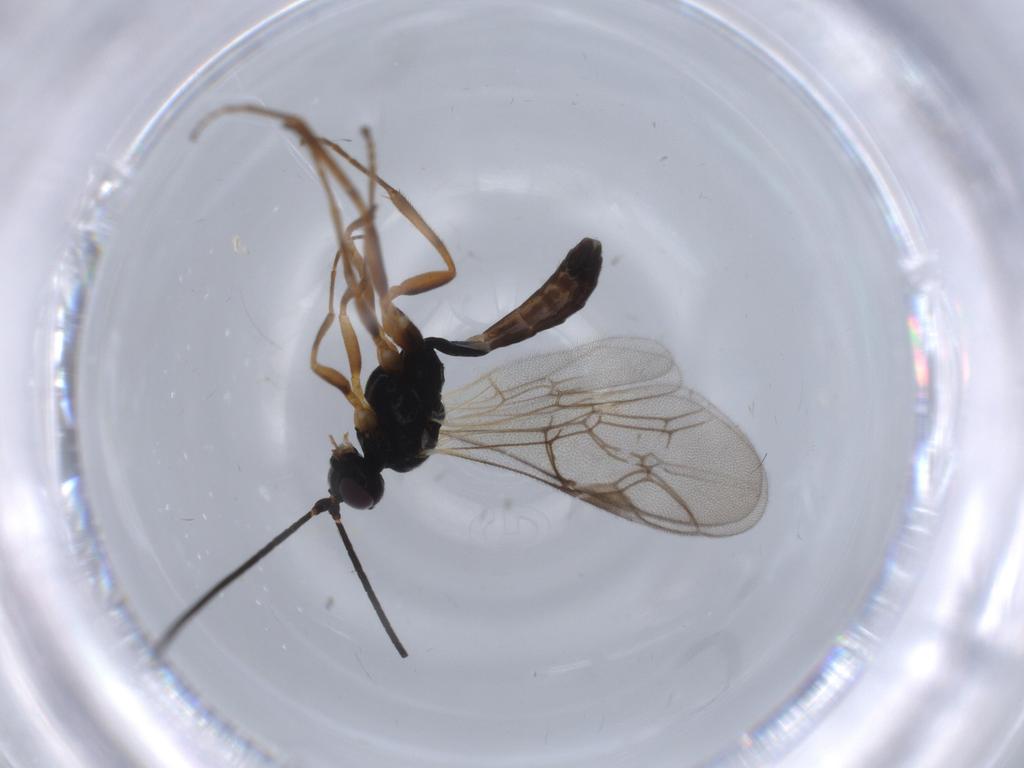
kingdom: Animalia
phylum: Arthropoda
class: Insecta
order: Hymenoptera
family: Ichneumonidae
